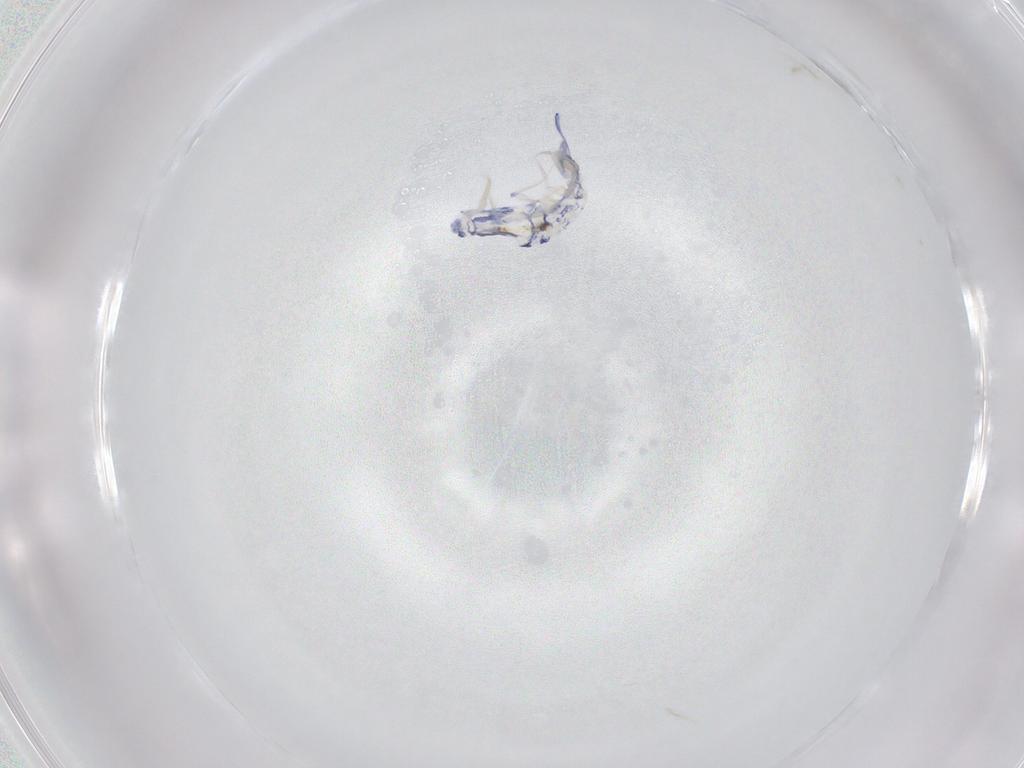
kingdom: Animalia
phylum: Arthropoda
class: Collembola
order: Entomobryomorpha
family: Entomobryidae
